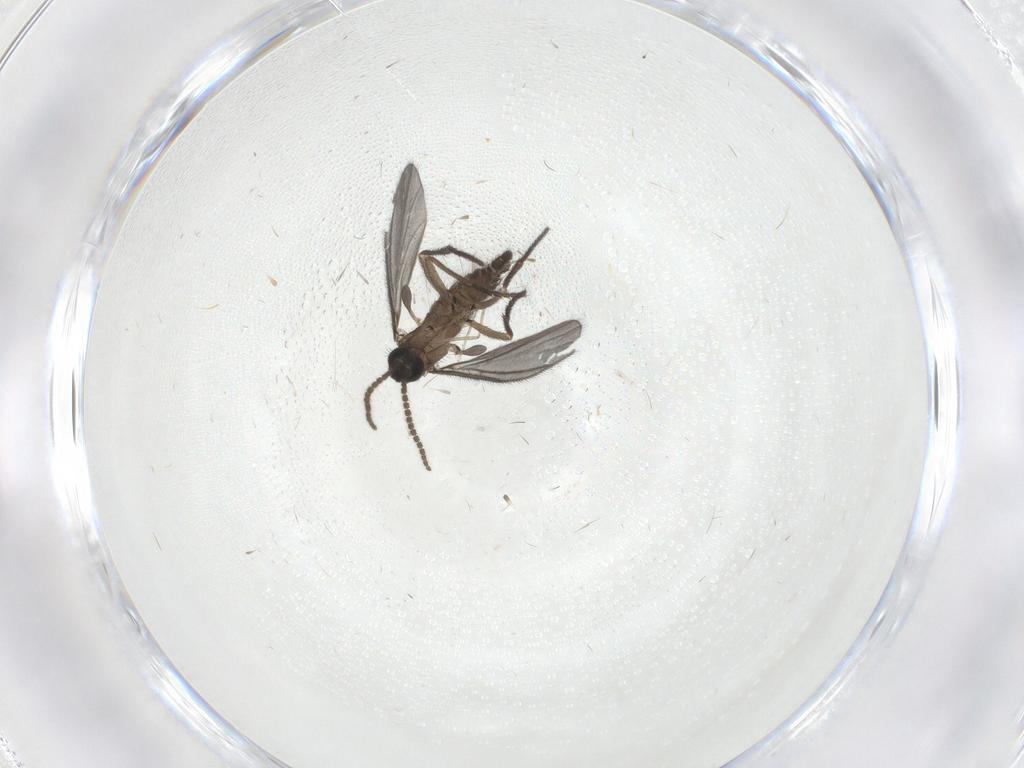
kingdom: Animalia
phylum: Arthropoda
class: Insecta
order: Diptera
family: Sciaridae
